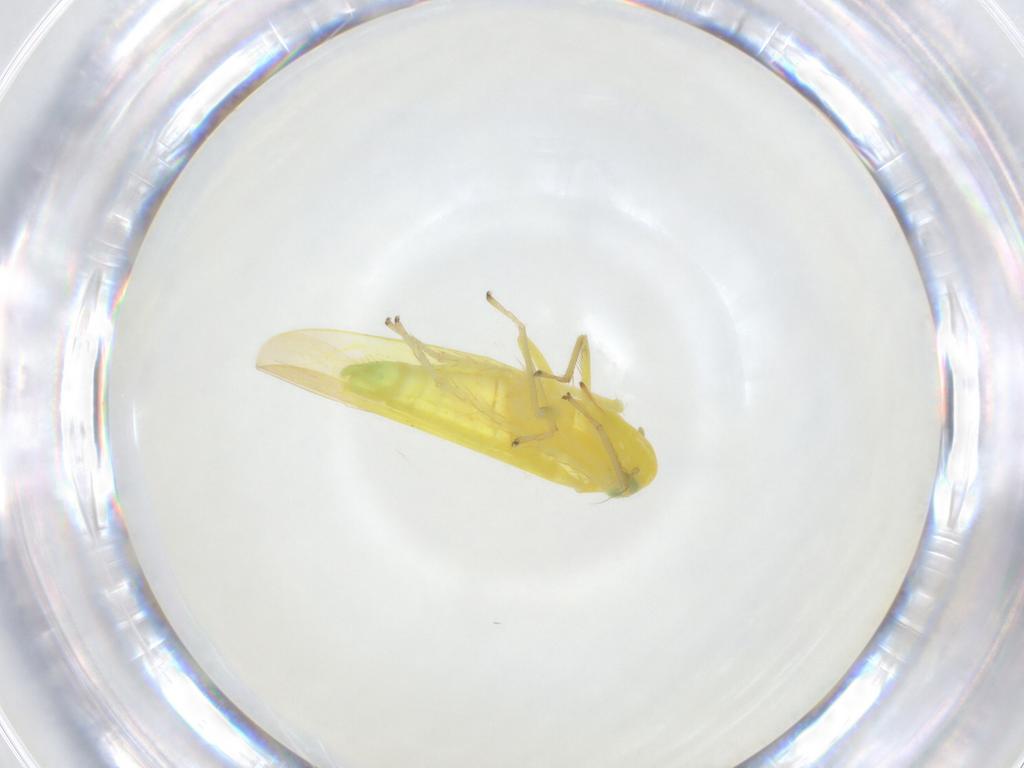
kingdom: Animalia
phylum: Arthropoda
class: Insecta
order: Hemiptera
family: Cicadellidae
